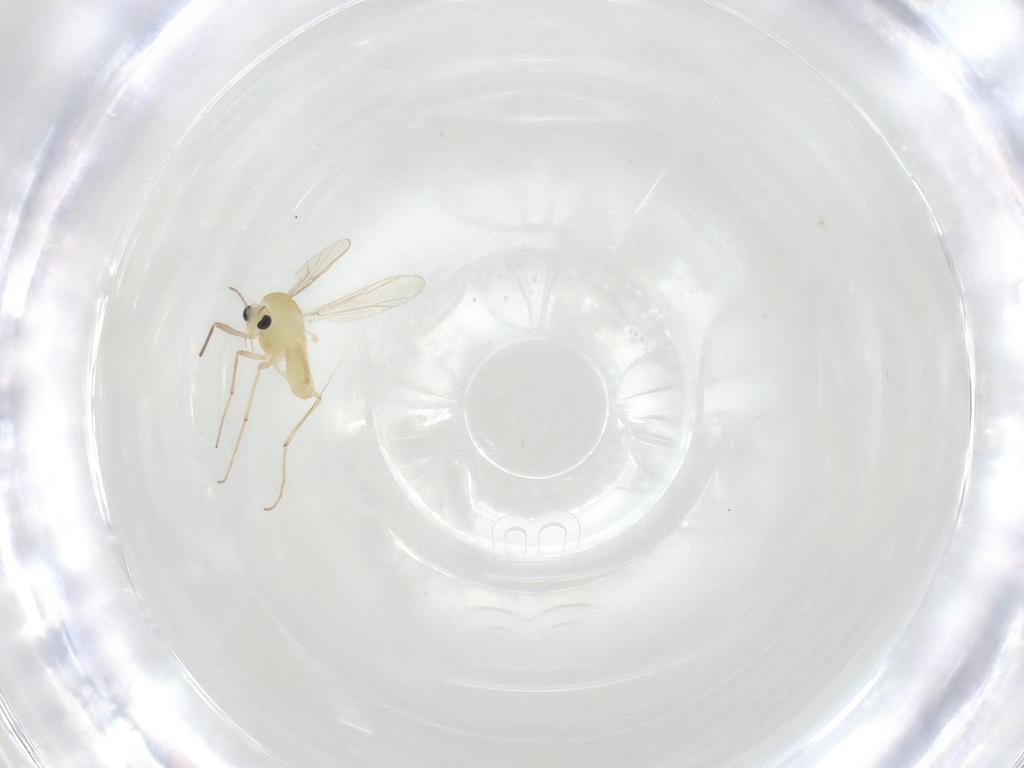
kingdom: Animalia
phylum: Arthropoda
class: Insecta
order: Diptera
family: Chironomidae
